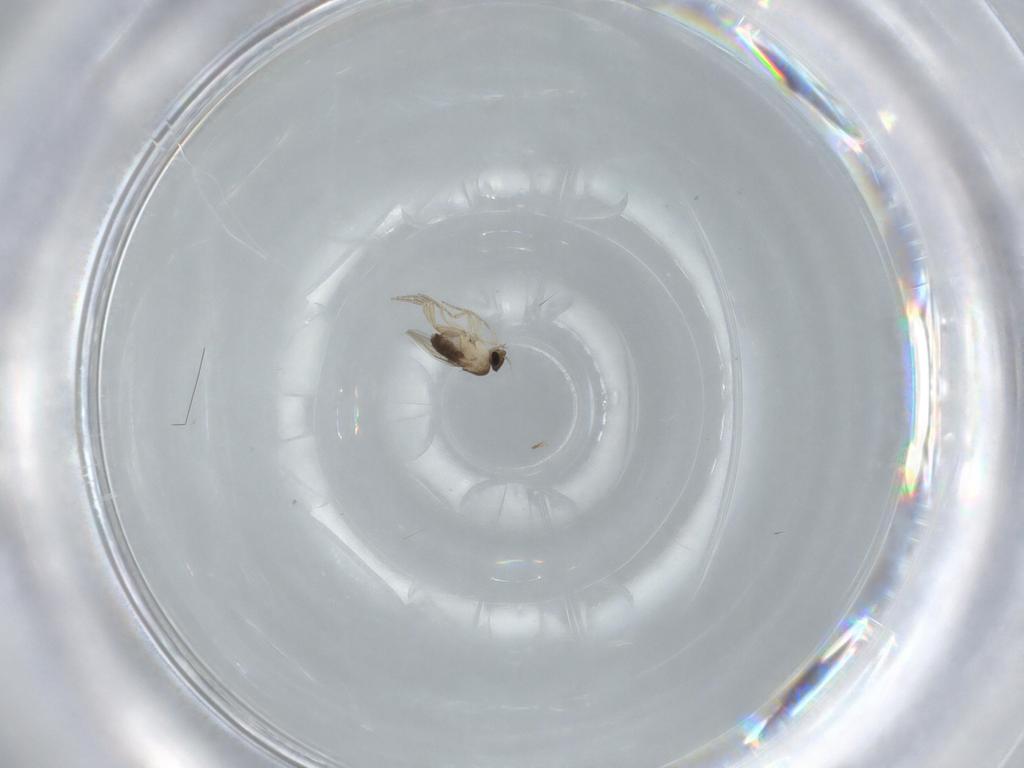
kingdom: Animalia
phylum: Arthropoda
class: Insecta
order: Diptera
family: Phoridae
